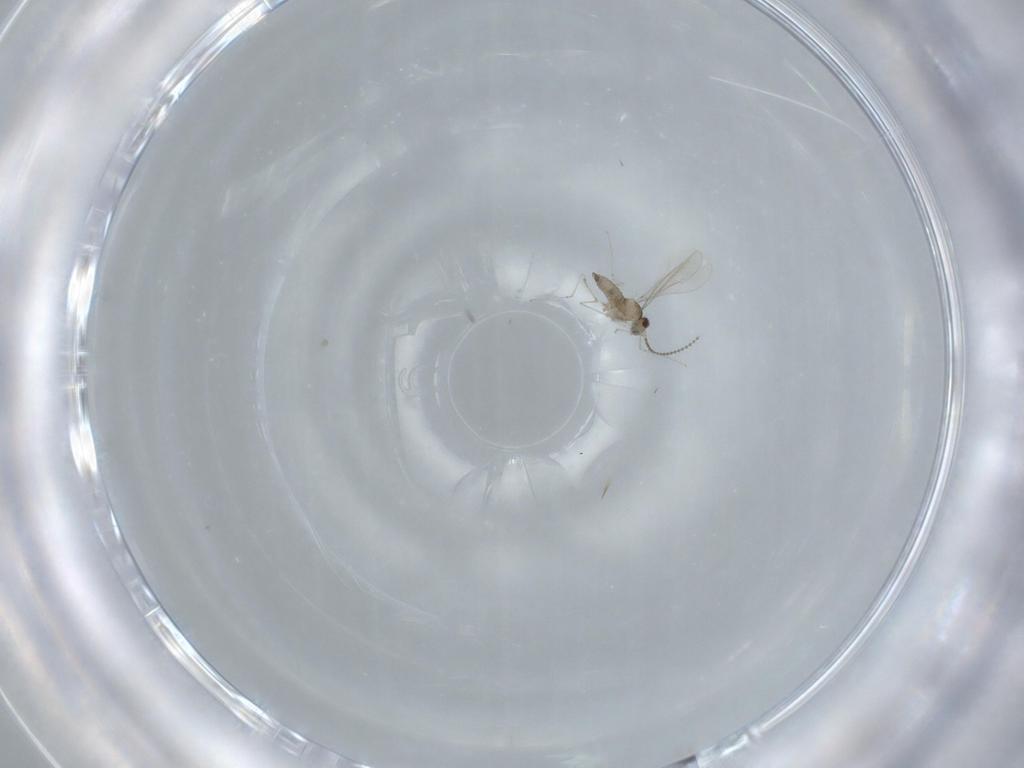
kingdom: Animalia
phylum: Arthropoda
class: Insecta
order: Diptera
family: Cecidomyiidae
